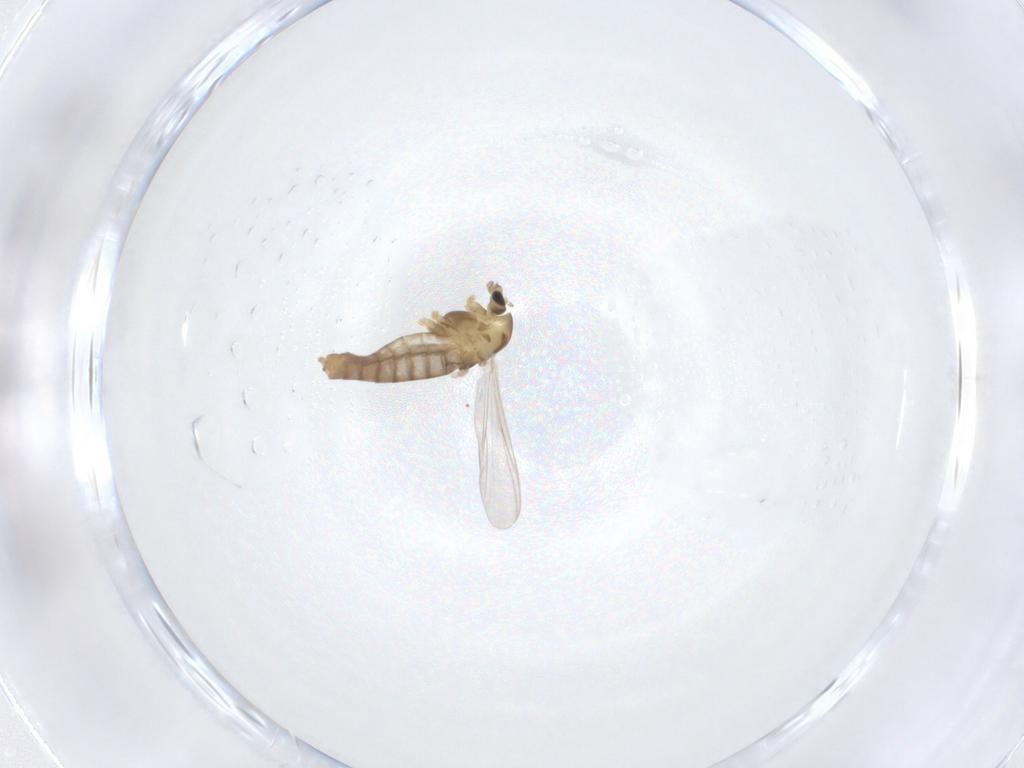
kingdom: Animalia
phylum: Arthropoda
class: Insecta
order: Diptera
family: Chironomidae
